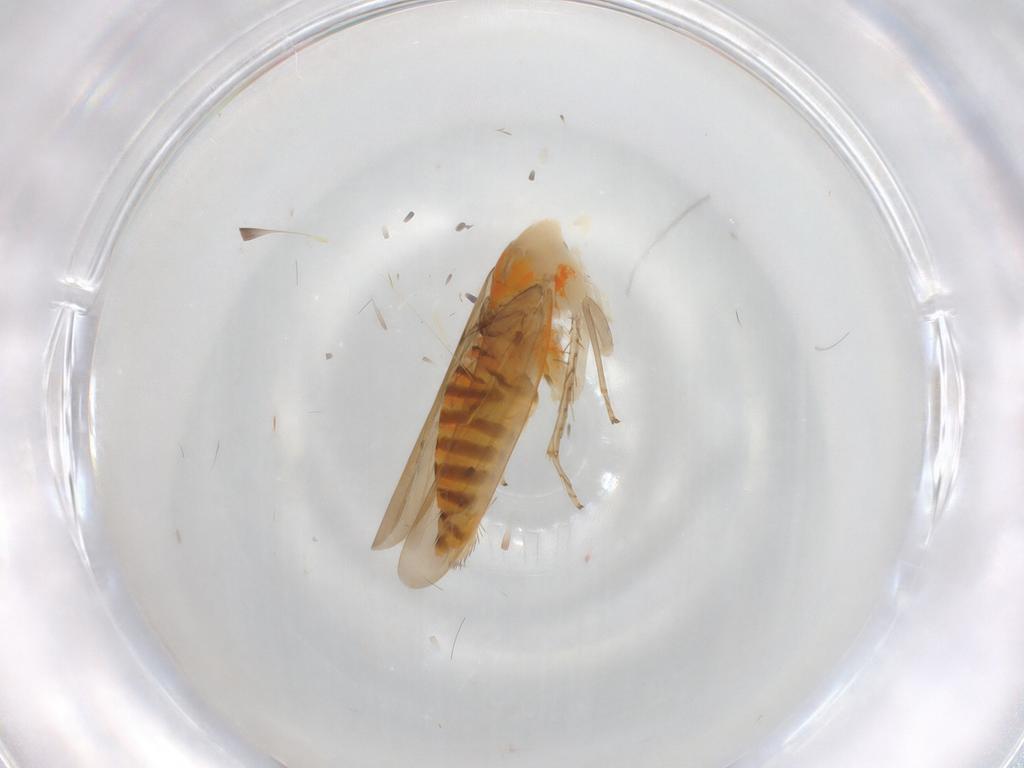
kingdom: Animalia
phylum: Arthropoda
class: Insecta
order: Hemiptera
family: Cicadellidae
